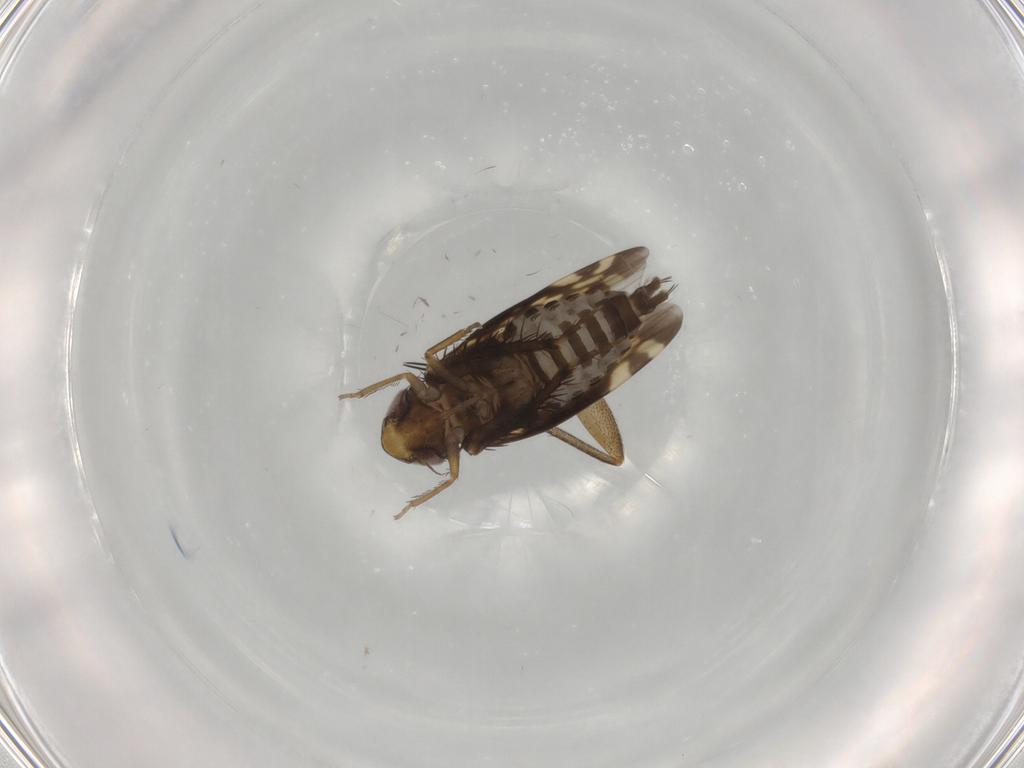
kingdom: Animalia
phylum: Arthropoda
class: Insecta
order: Hemiptera
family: Cicadellidae
